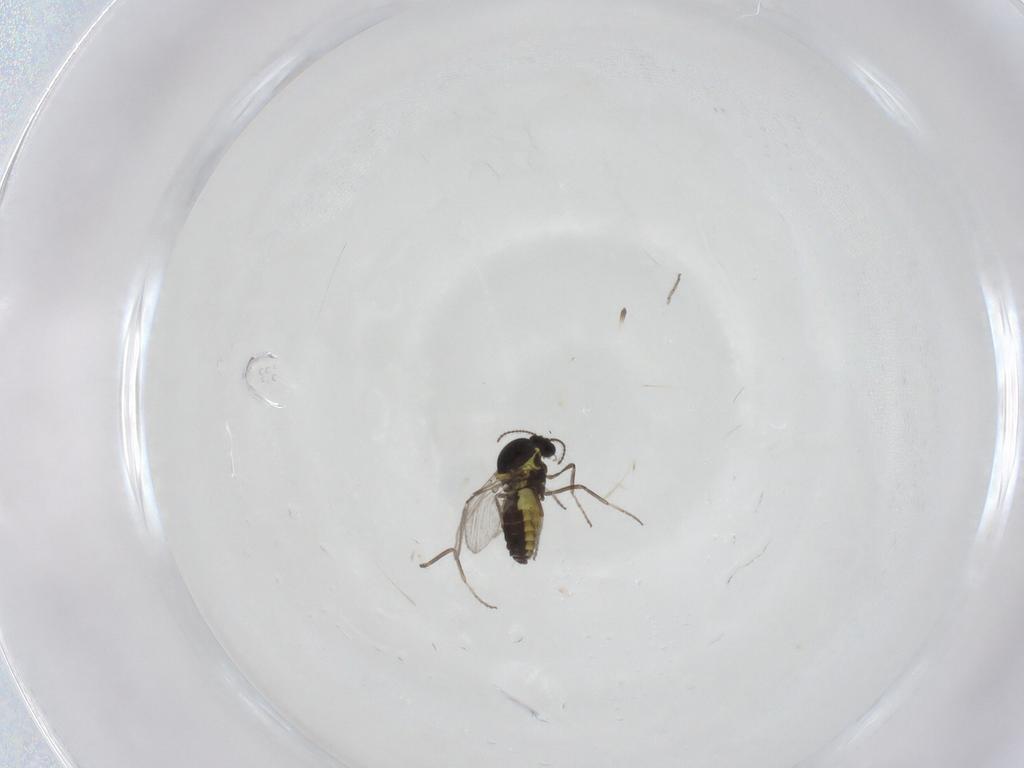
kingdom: Animalia
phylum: Arthropoda
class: Insecta
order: Diptera
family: Ceratopogonidae
